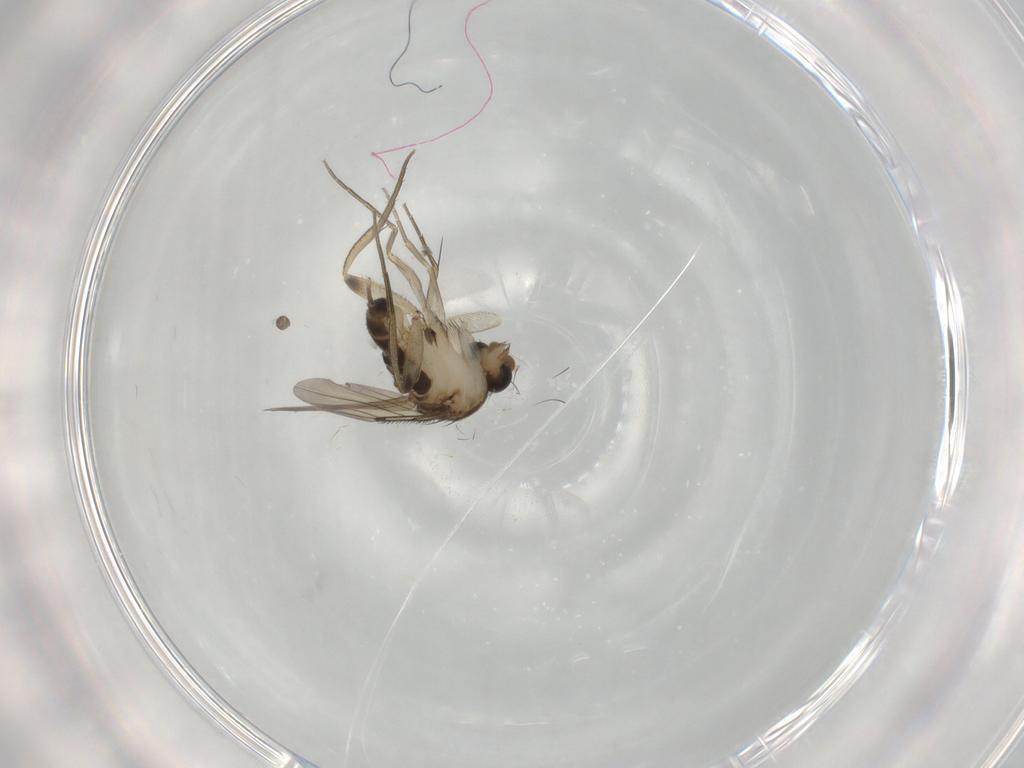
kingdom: Animalia
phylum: Arthropoda
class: Insecta
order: Diptera
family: Phoridae
